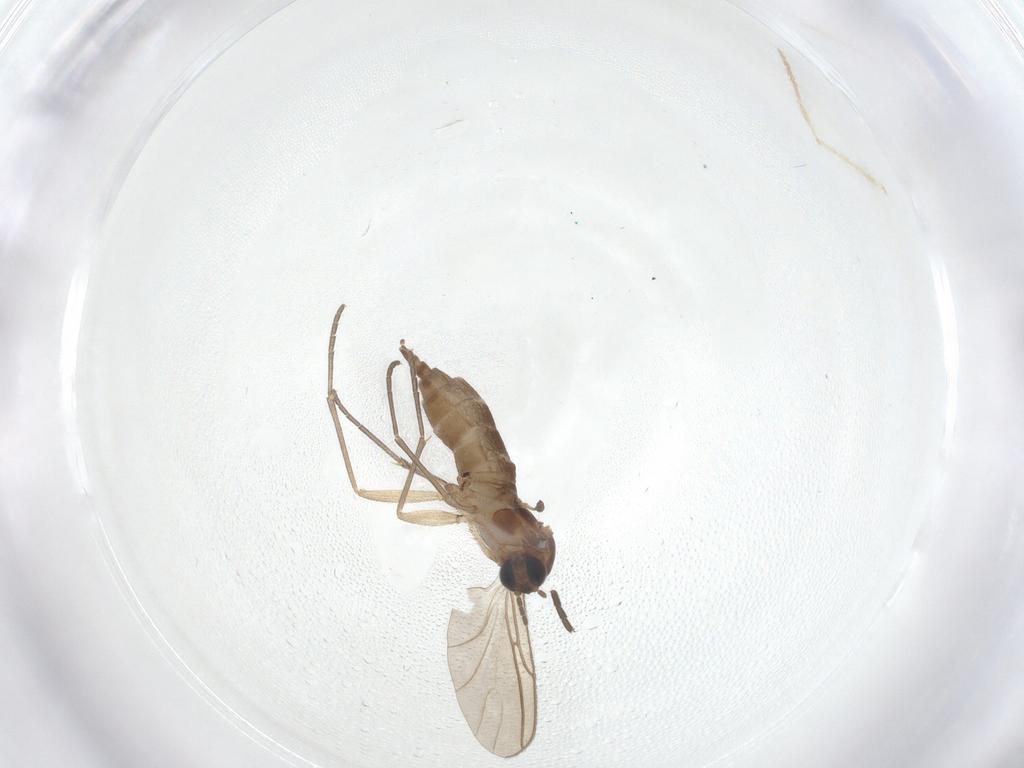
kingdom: Animalia
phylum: Arthropoda
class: Insecta
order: Diptera
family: Sciaridae
